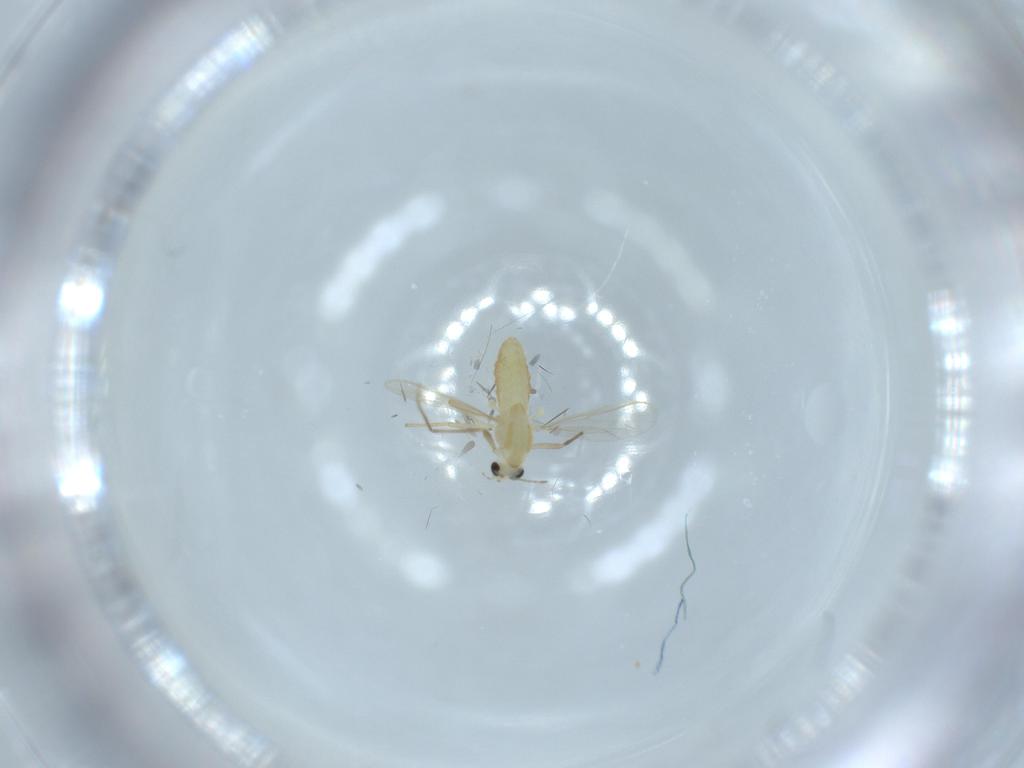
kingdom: Animalia
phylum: Arthropoda
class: Insecta
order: Diptera
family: Chironomidae
